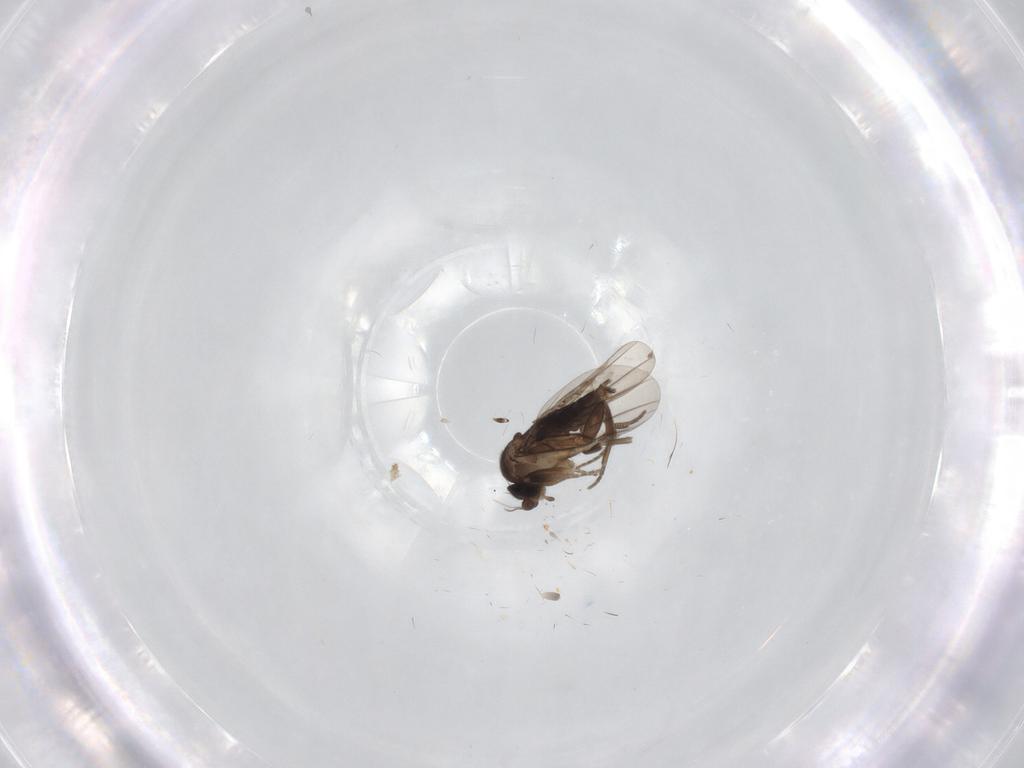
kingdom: Animalia
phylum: Arthropoda
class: Insecta
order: Diptera
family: Phoridae
